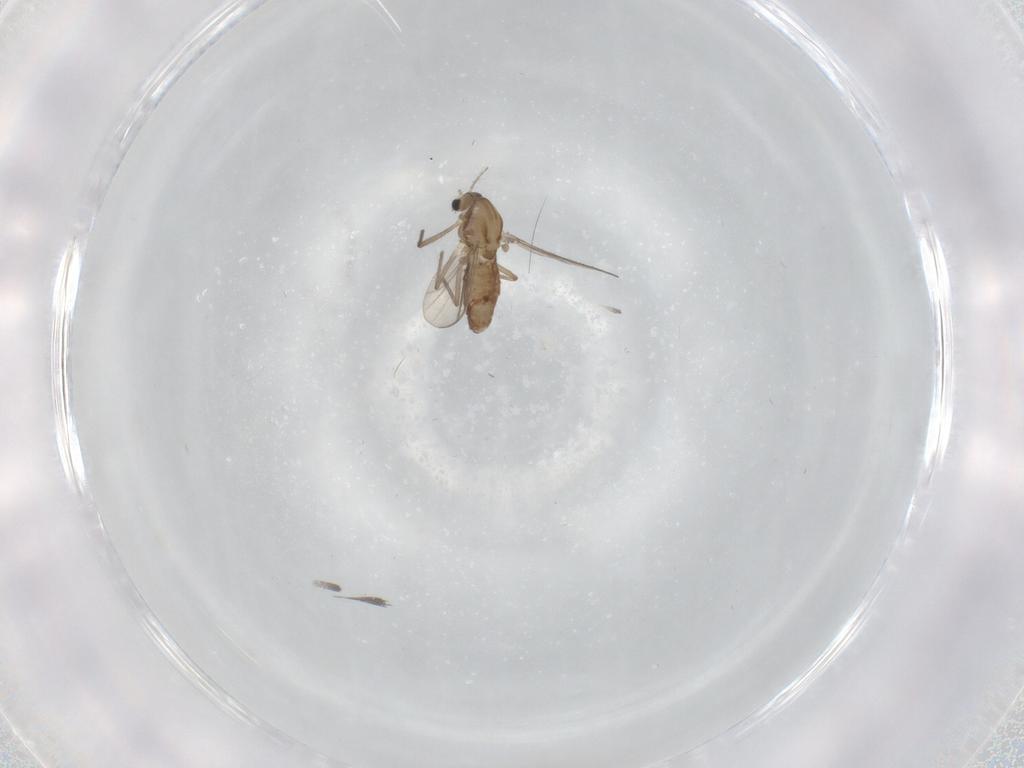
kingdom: Animalia
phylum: Arthropoda
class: Insecta
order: Diptera
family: Chironomidae
